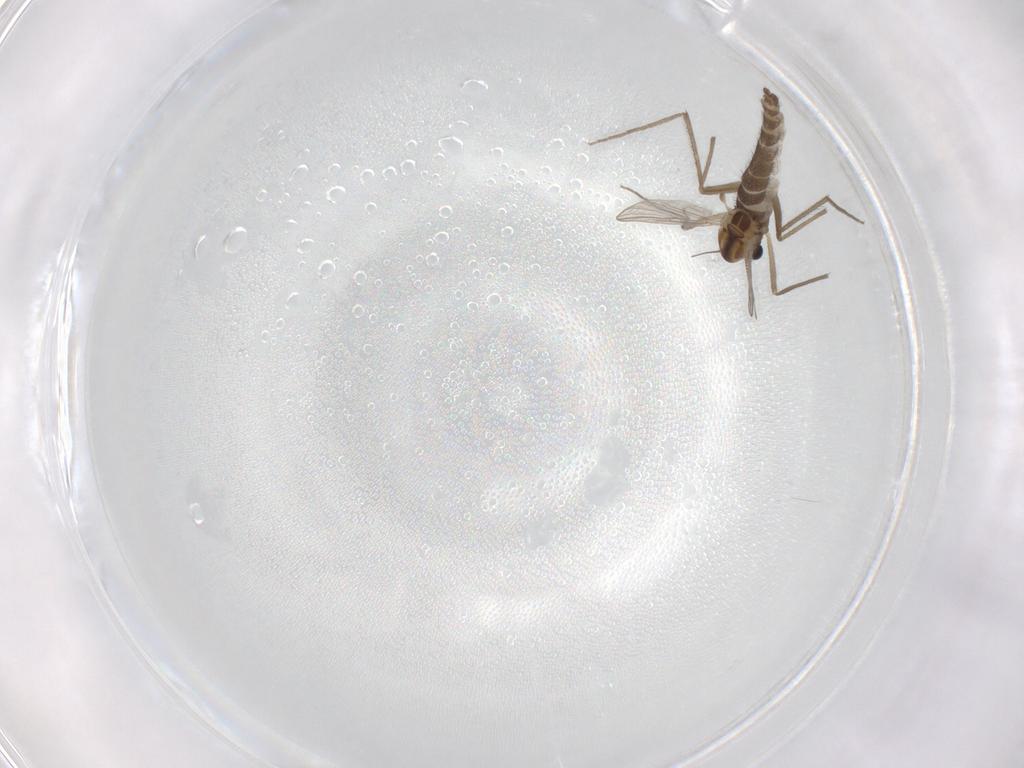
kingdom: Animalia
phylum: Arthropoda
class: Insecta
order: Diptera
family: Chironomidae
